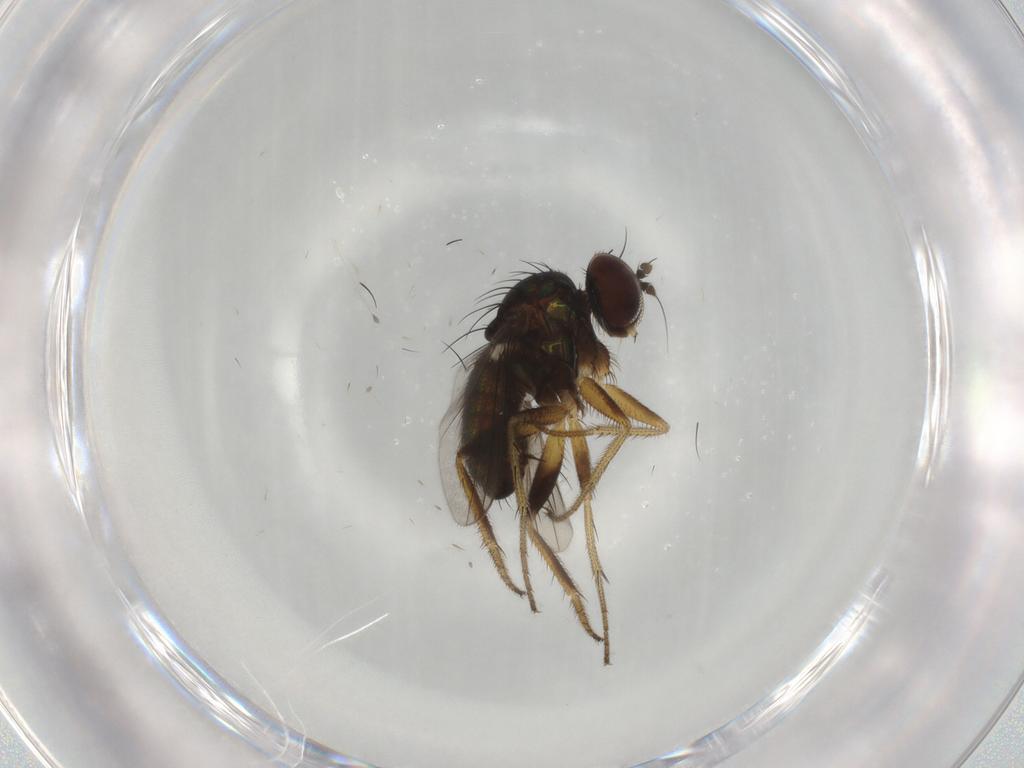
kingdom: Animalia
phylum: Arthropoda
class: Insecta
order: Diptera
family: Dolichopodidae
